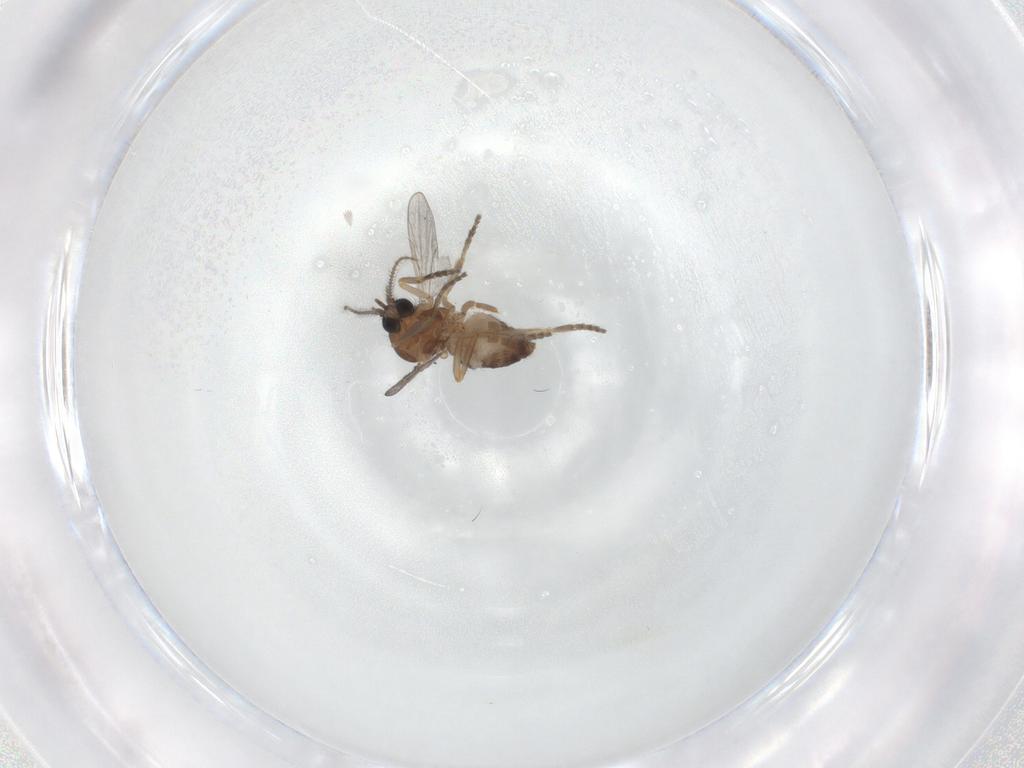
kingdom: Animalia
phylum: Arthropoda
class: Insecta
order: Diptera
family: Ceratopogonidae
